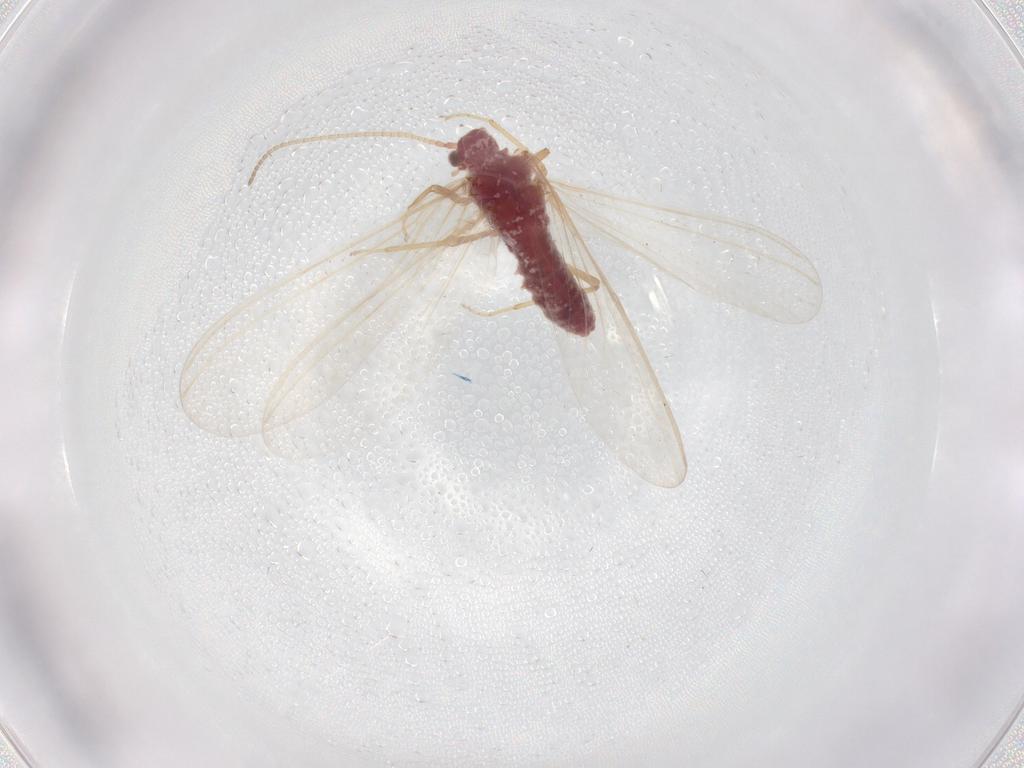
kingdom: Animalia
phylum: Arthropoda
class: Insecta
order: Neuroptera
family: Coniopterygidae
